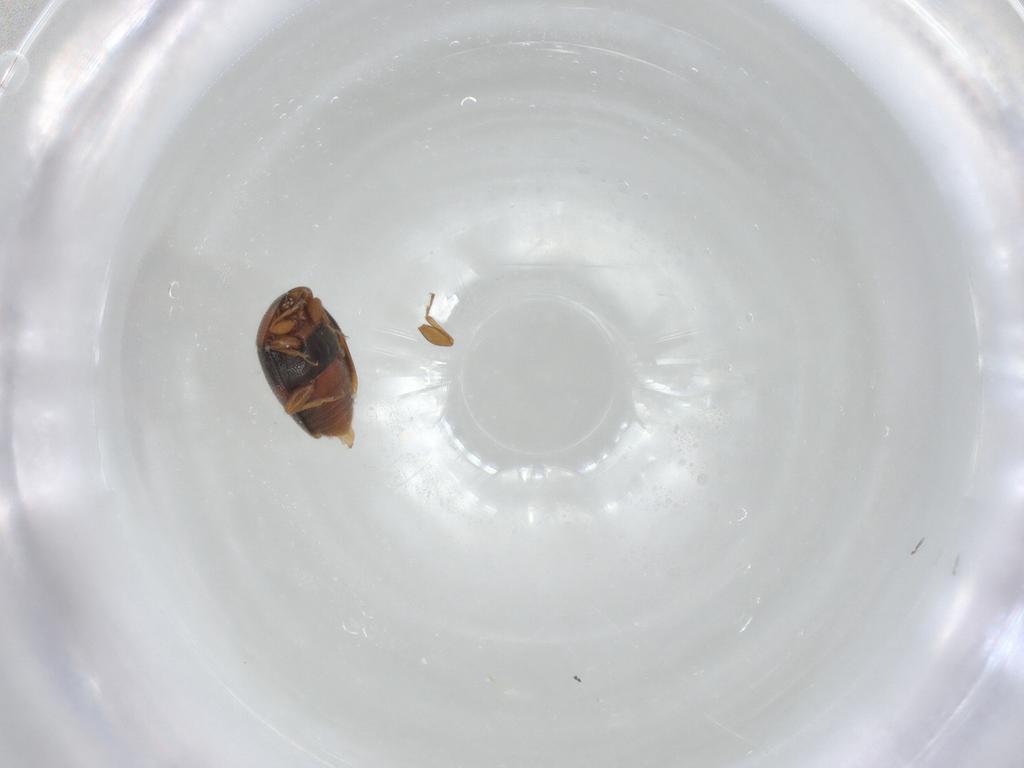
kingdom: Animalia
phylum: Arthropoda
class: Insecta
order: Coleoptera
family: Corylophidae
